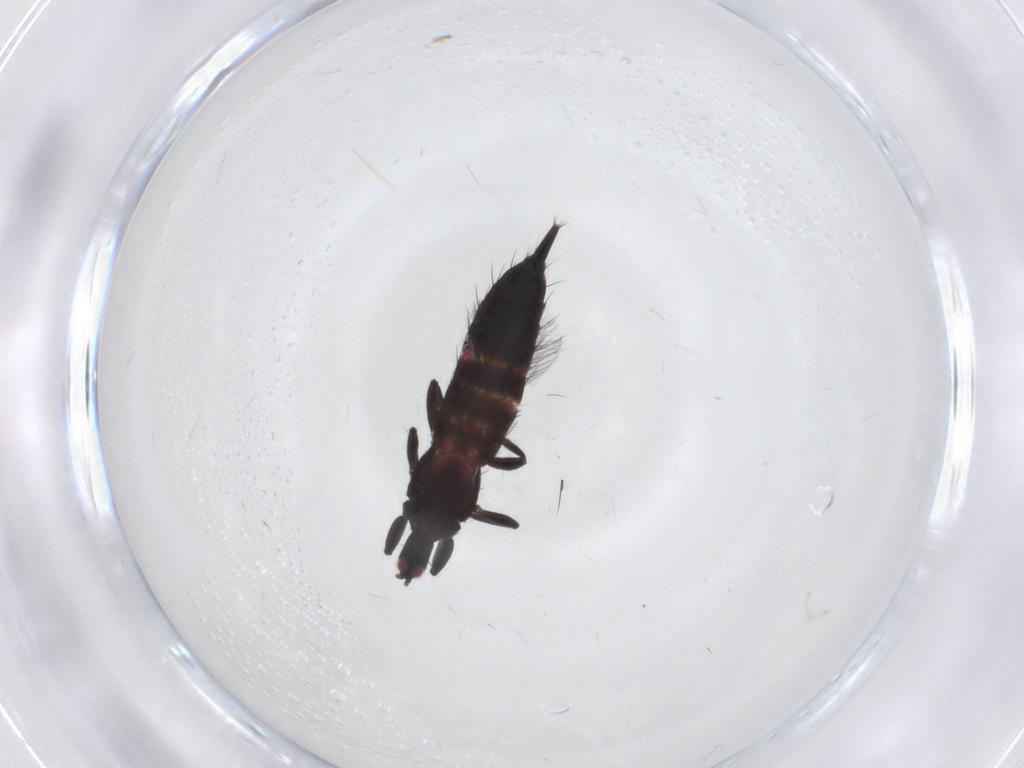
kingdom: Animalia
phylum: Arthropoda
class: Insecta
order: Thysanoptera
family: Phlaeothripidae
